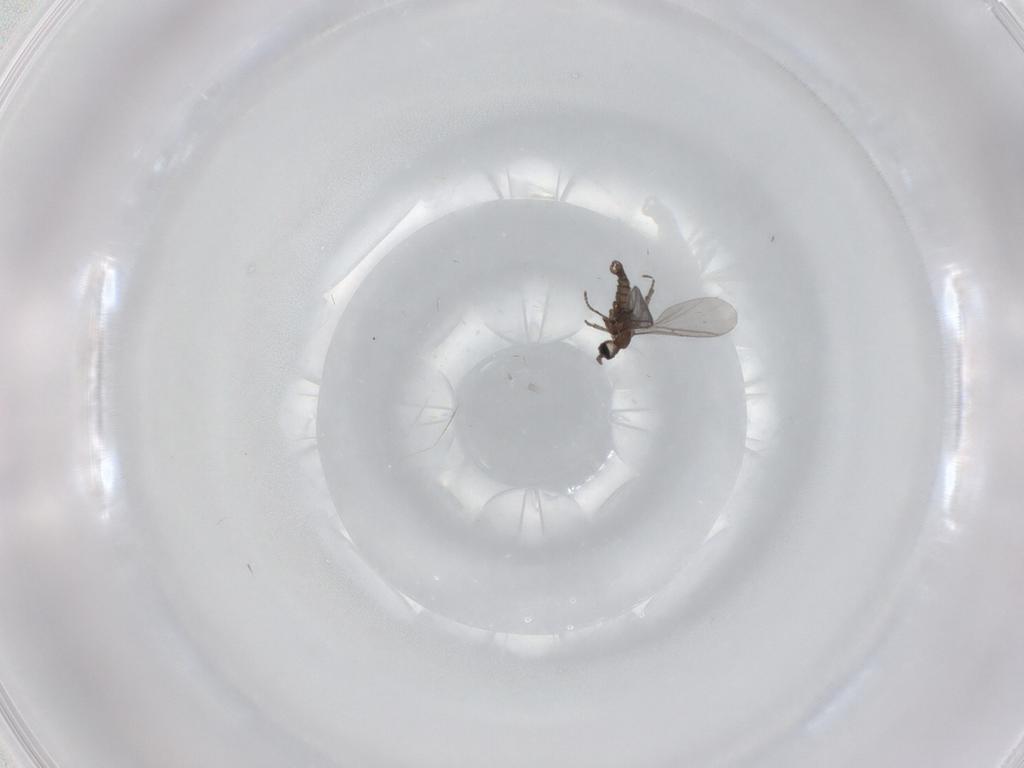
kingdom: Animalia
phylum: Arthropoda
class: Insecta
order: Diptera
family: Sciaridae
